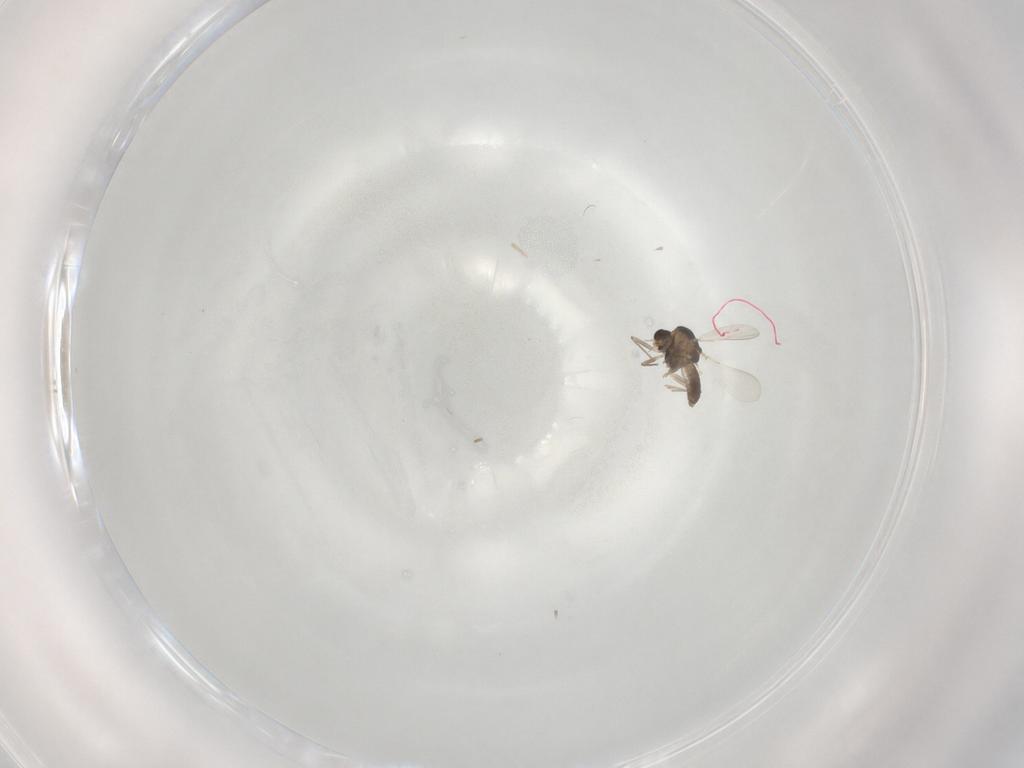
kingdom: Animalia
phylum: Arthropoda
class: Insecta
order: Diptera
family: Chironomidae
